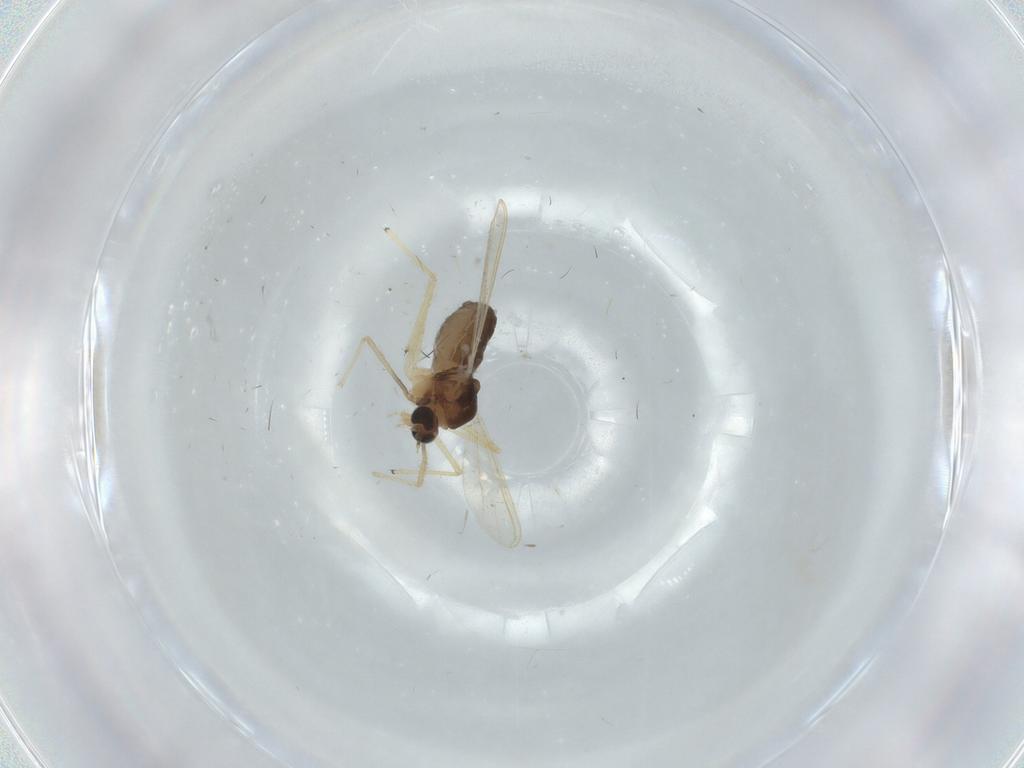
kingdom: Animalia
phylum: Arthropoda
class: Insecta
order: Diptera
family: Chironomidae
